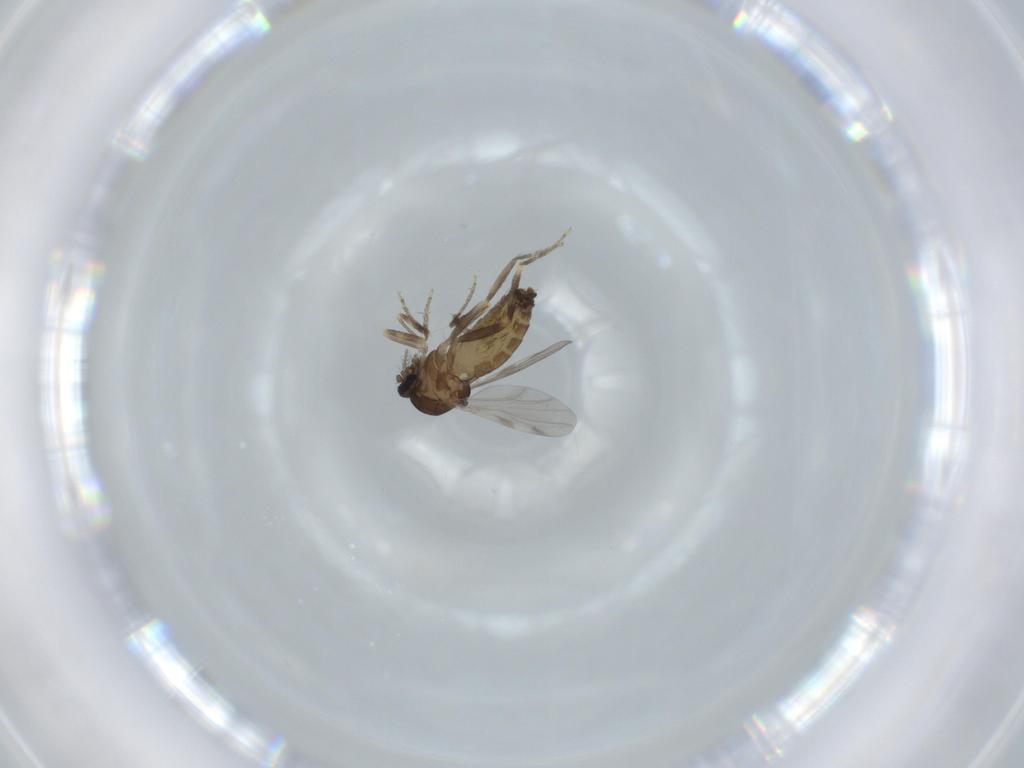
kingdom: Animalia
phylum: Arthropoda
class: Insecta
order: Diptera
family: Ceratopogonidae
